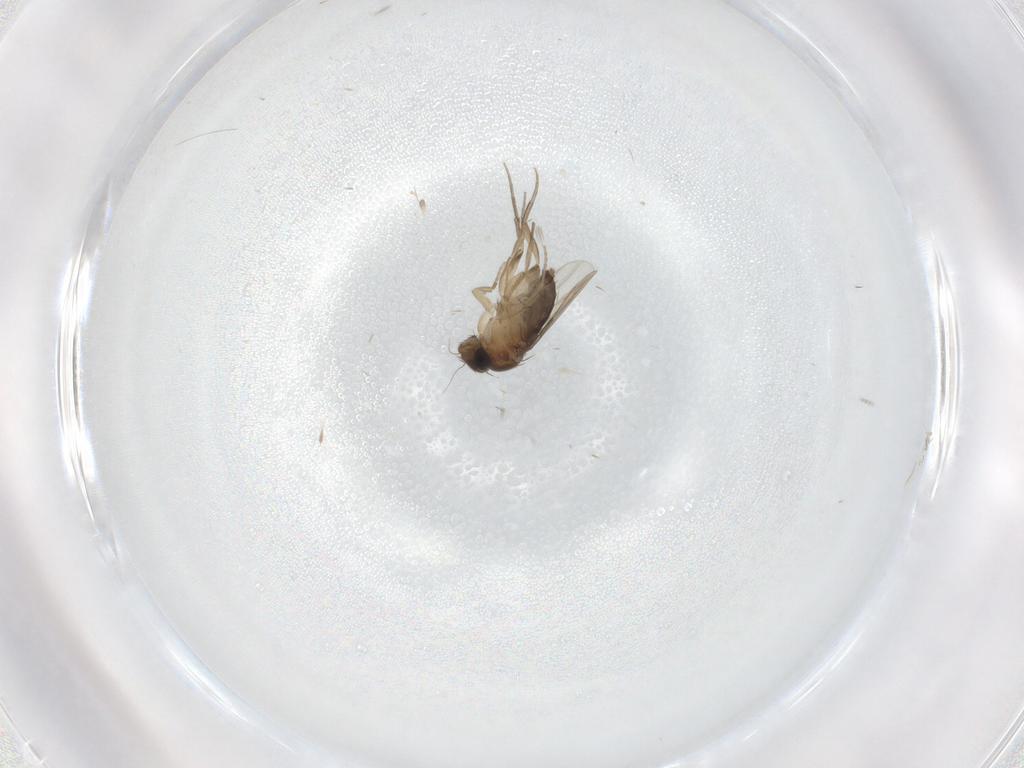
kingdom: Animalia
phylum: Arthropoda
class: Insecta
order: Diptera
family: Phoridae
